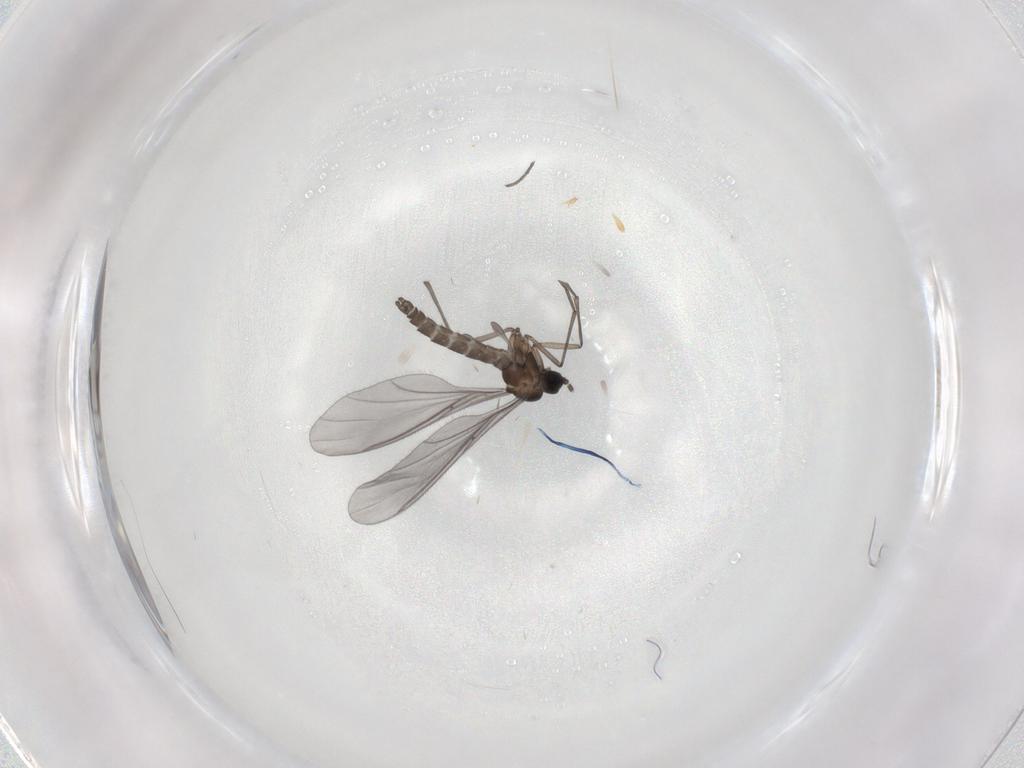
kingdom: Animalia
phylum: Arthropoda
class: Insecta
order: Diptera
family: Sciaridae
